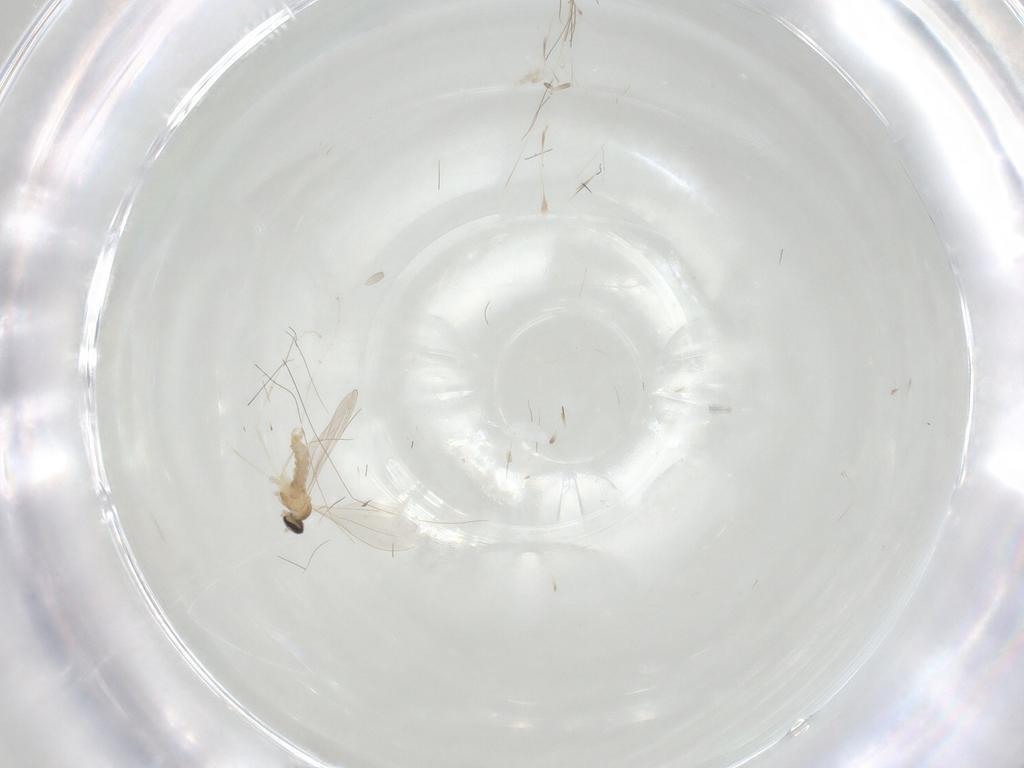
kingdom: Animalia
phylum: Arthropoda
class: Insecta
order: Diptera
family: Cecidomyiidae
